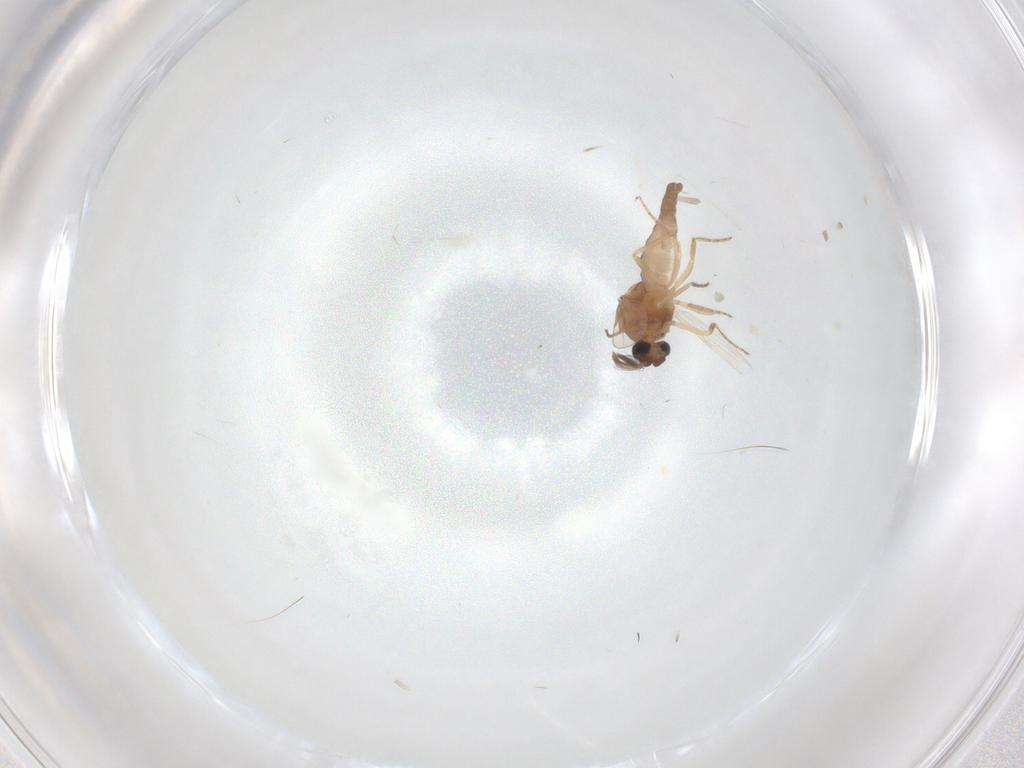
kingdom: Animalia
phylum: Arthropoda
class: Insecta
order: Diptera
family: Ceratopogonidae
